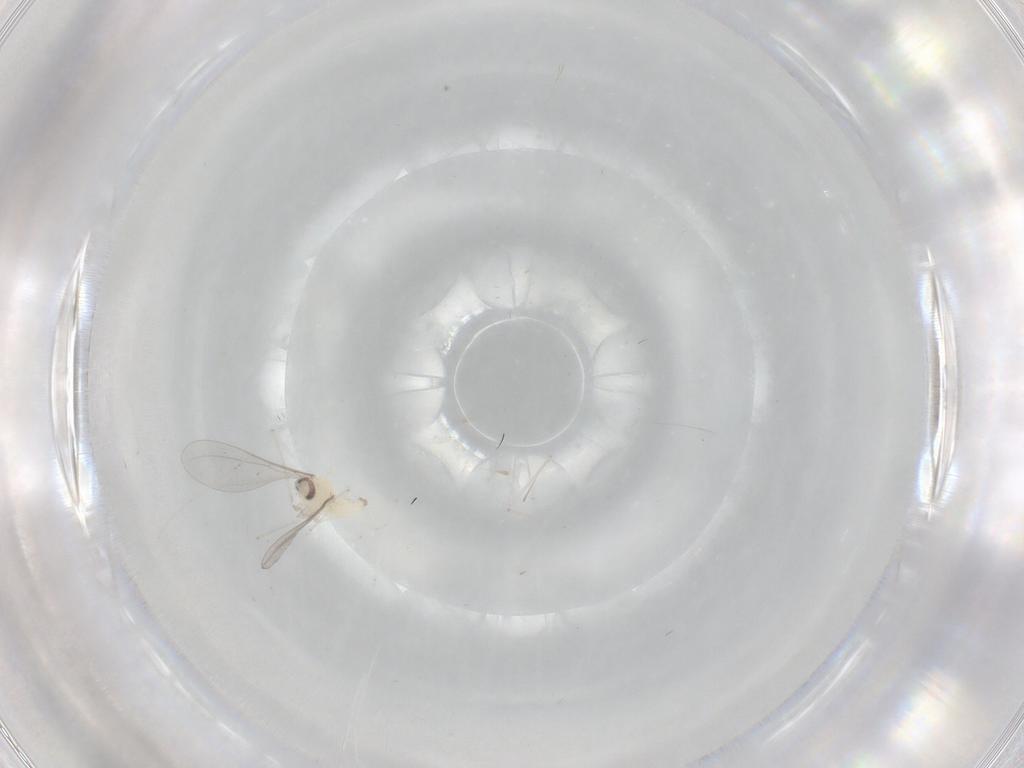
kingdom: Animalia
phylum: Arthropoda
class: Insecta
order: Diptera
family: Cecidomyiidae
